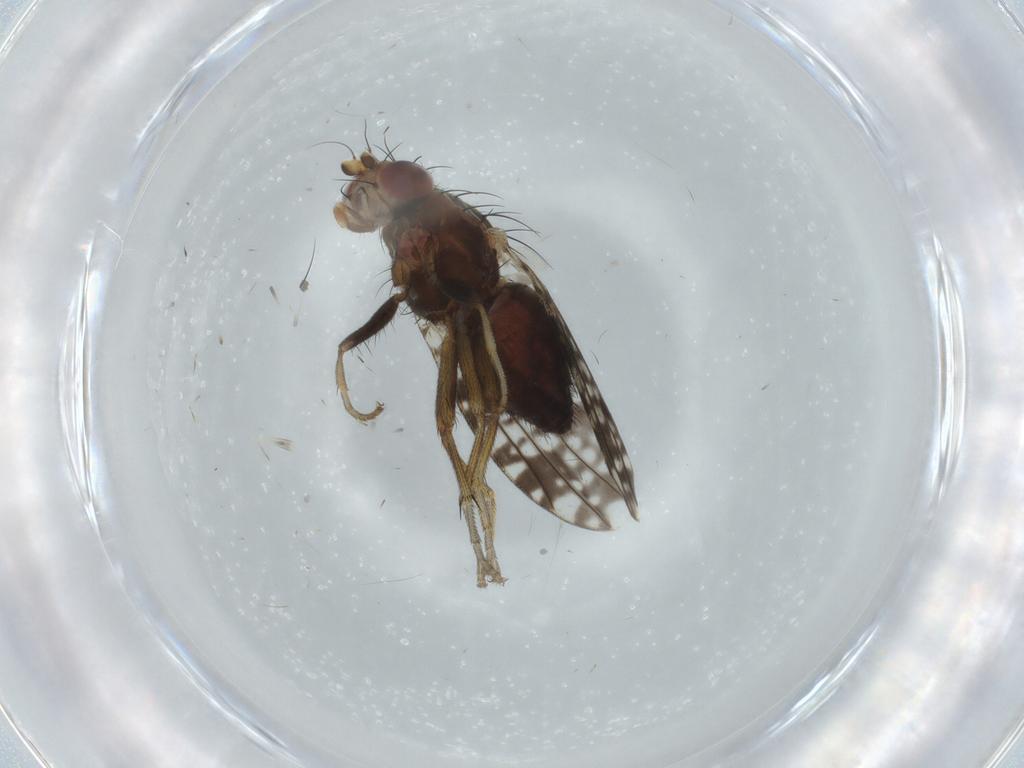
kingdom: Animalia
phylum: Arthropoda
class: Insecta
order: Diptera
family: Tephritidae
